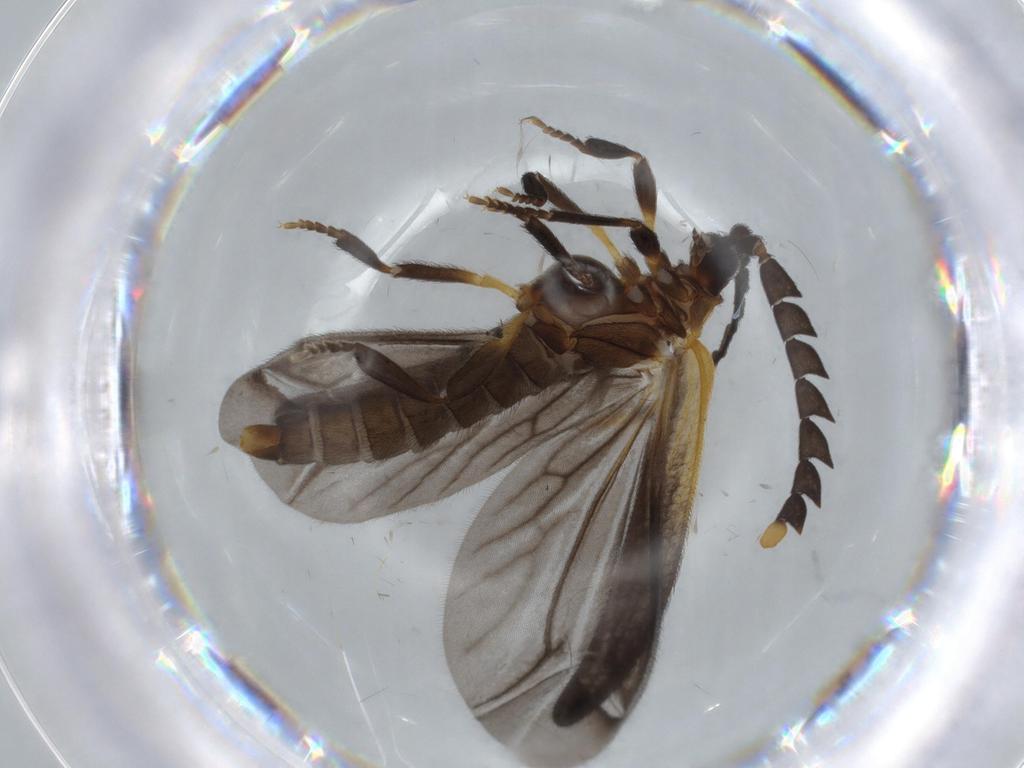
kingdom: Animalia
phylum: Arthropoda
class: Insecta
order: Coleoptera
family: Lycidae
